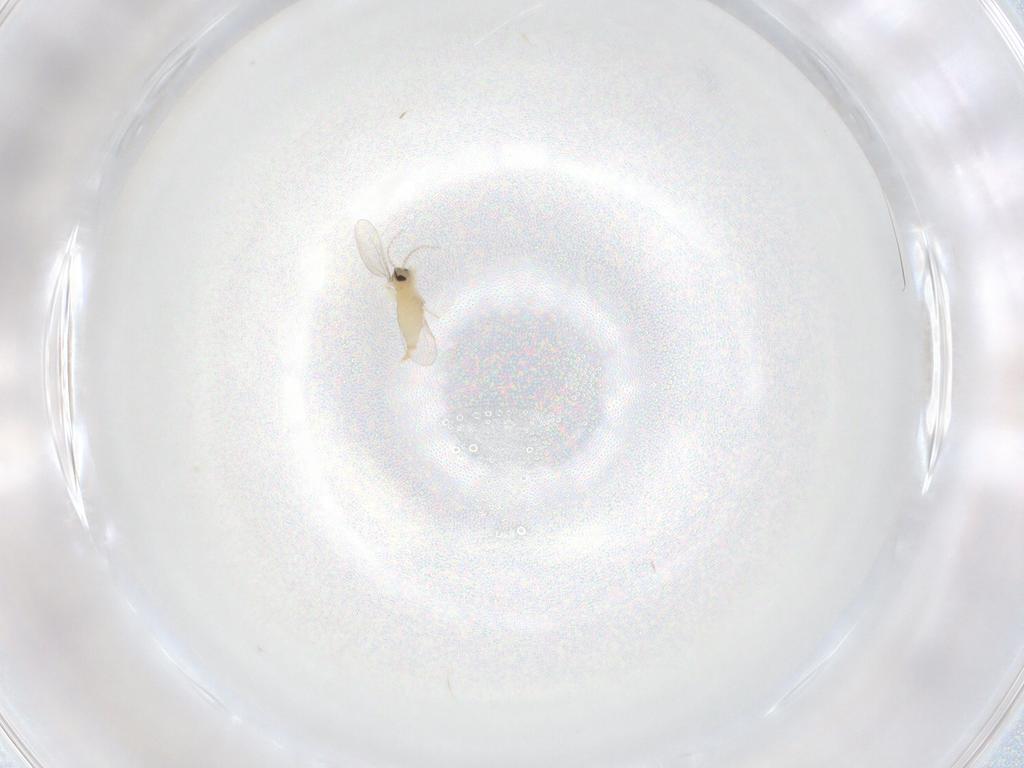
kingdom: Animalia
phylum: Arthropoda
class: Insecta
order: Diptera
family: Cecidomyiidae
